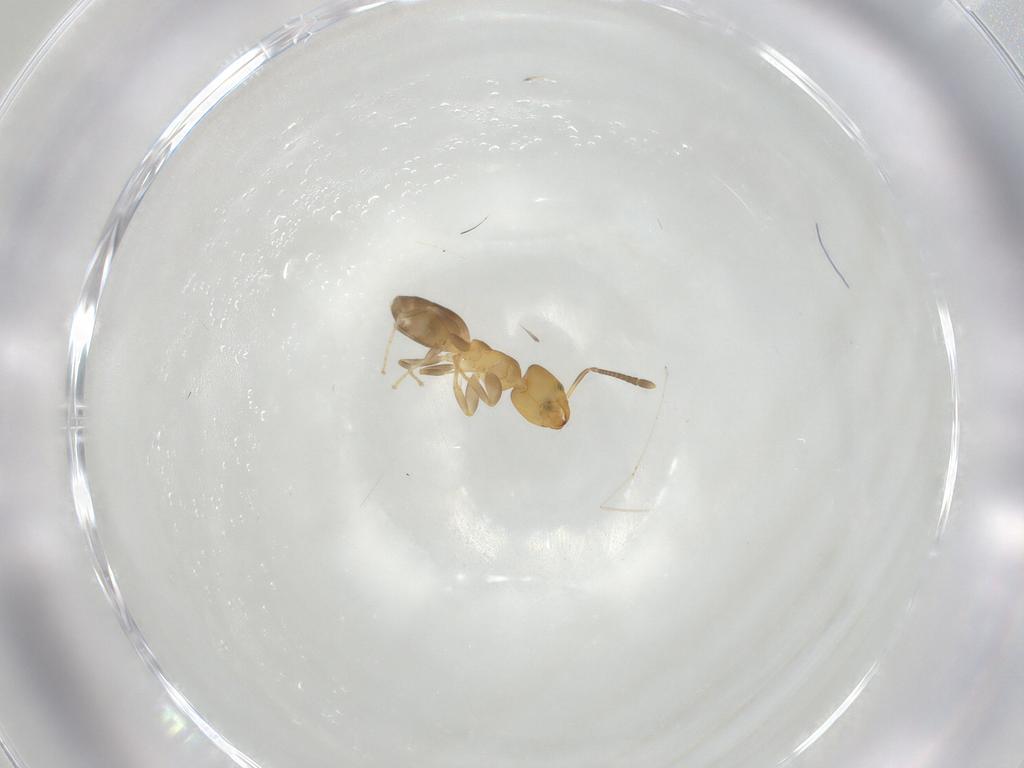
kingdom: Animalia
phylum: Arthropoda
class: Insecta
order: Hymenoptera
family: Formicidae
